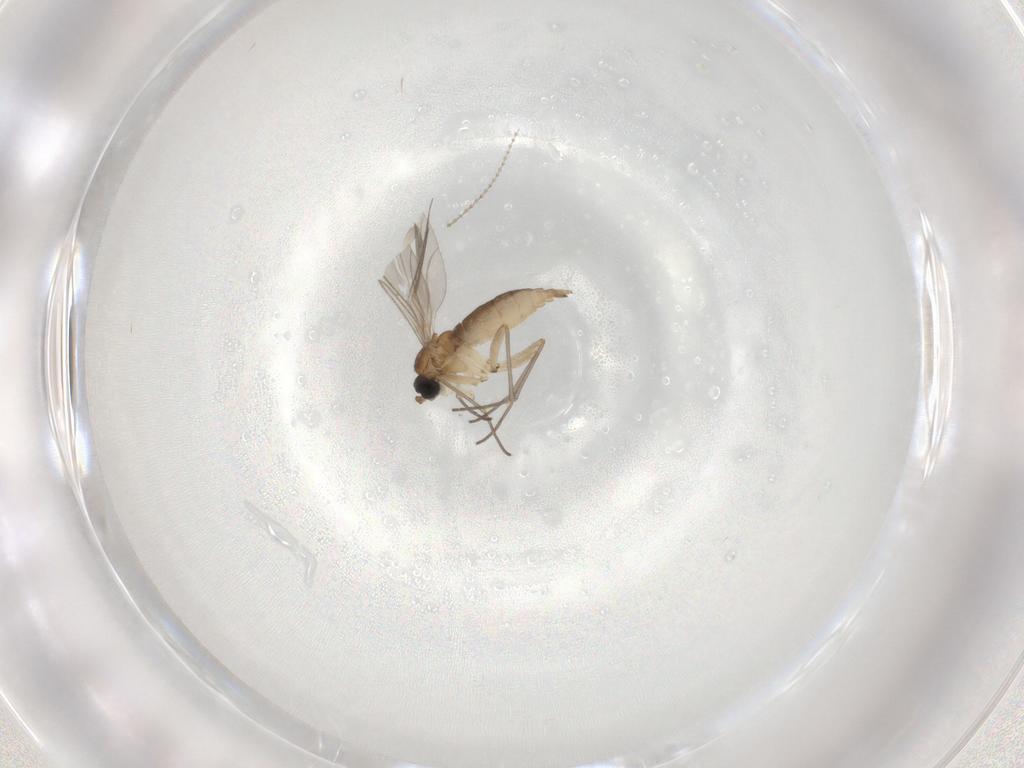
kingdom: Animalia
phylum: Arthropoda
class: Insecta
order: Diptera
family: Sciaridae
